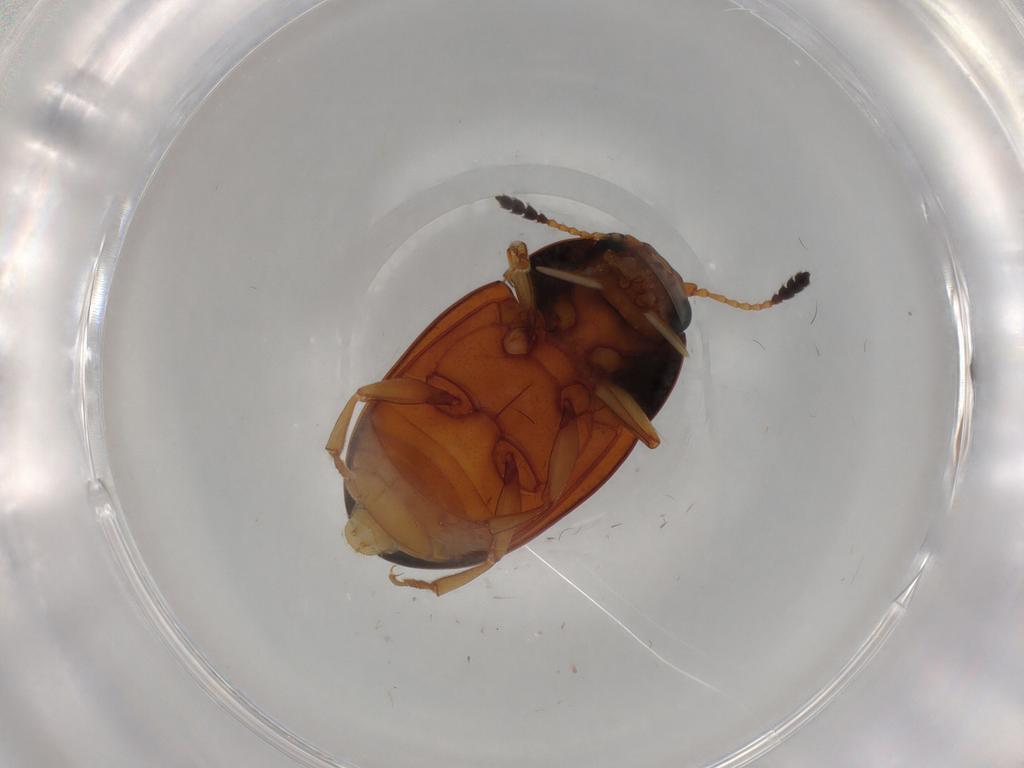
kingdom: Animalia
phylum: Arthropoda
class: Insecta
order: Coleoptera
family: Erotylidae
